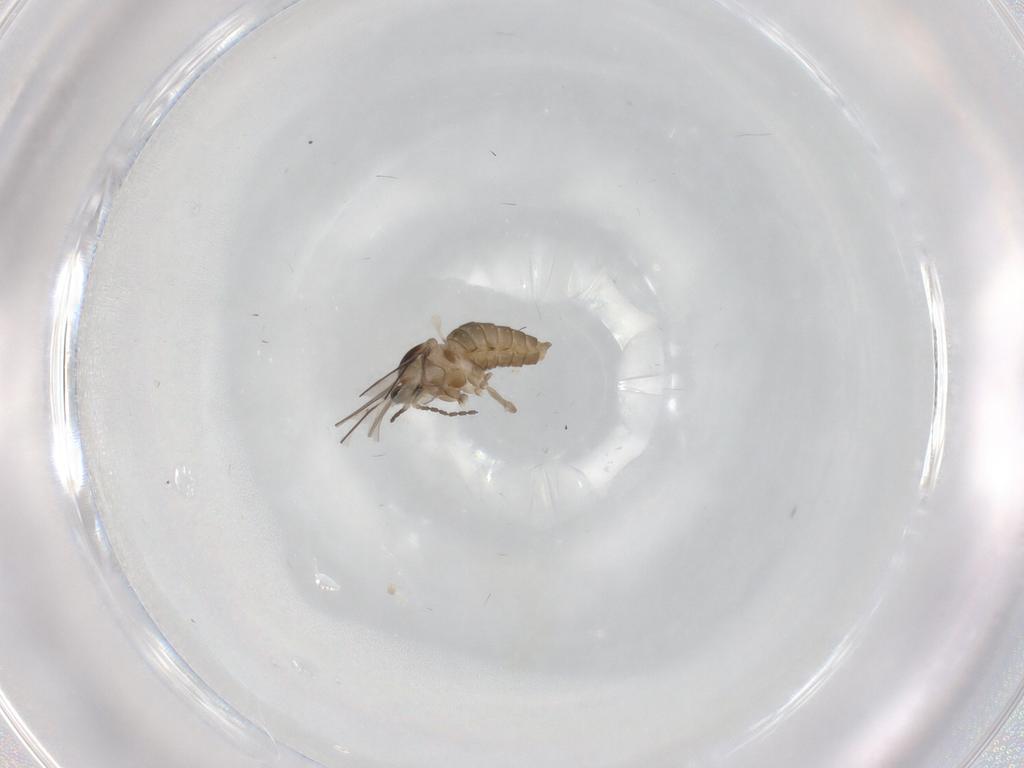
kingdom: Animalia
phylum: Arthropoda
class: Insecta
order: Diptera
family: Cecidomyiidae
